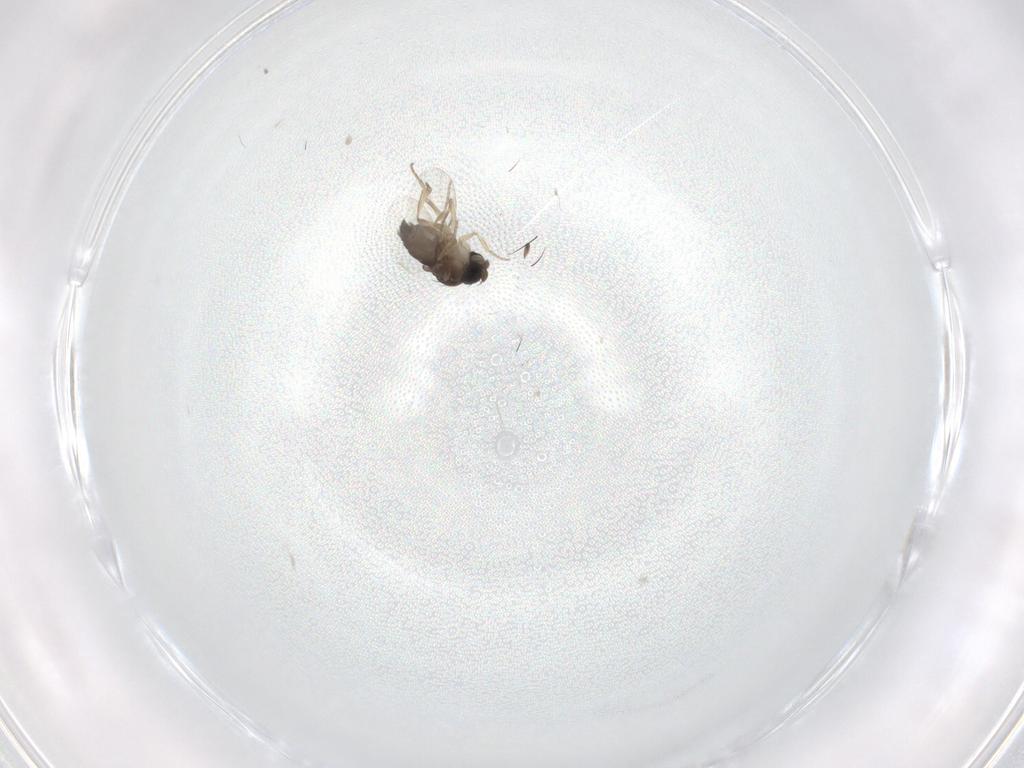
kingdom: Animalia
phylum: Arthropoda
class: Insecta
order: Diptera
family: Phoridae
